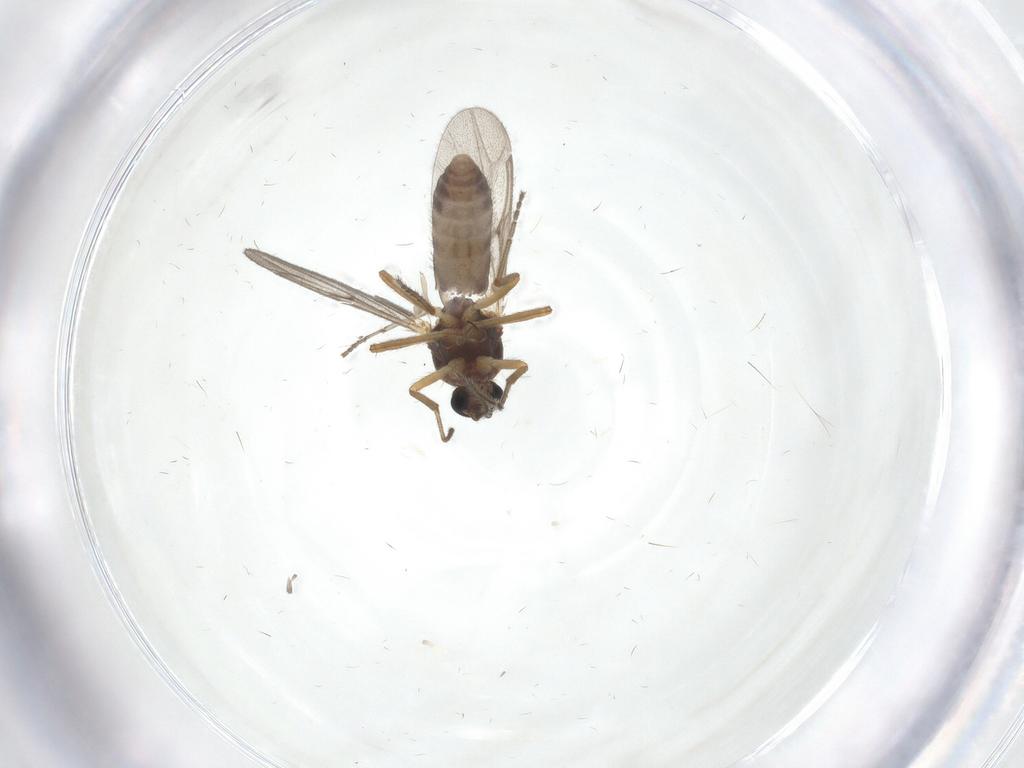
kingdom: Animalia
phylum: Arthropoda
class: Insecta
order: Diptera
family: Ceratopogonidae
